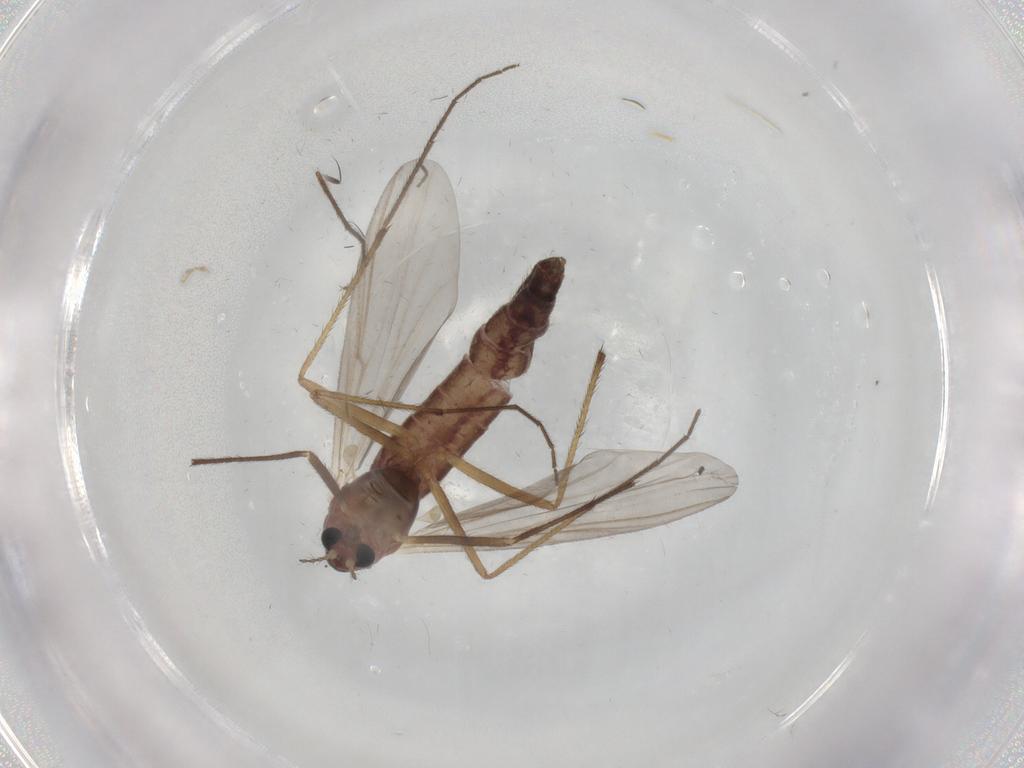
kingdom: Animalia
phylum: Arthropoda
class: Insecta
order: Diptera
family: Chironomidae
